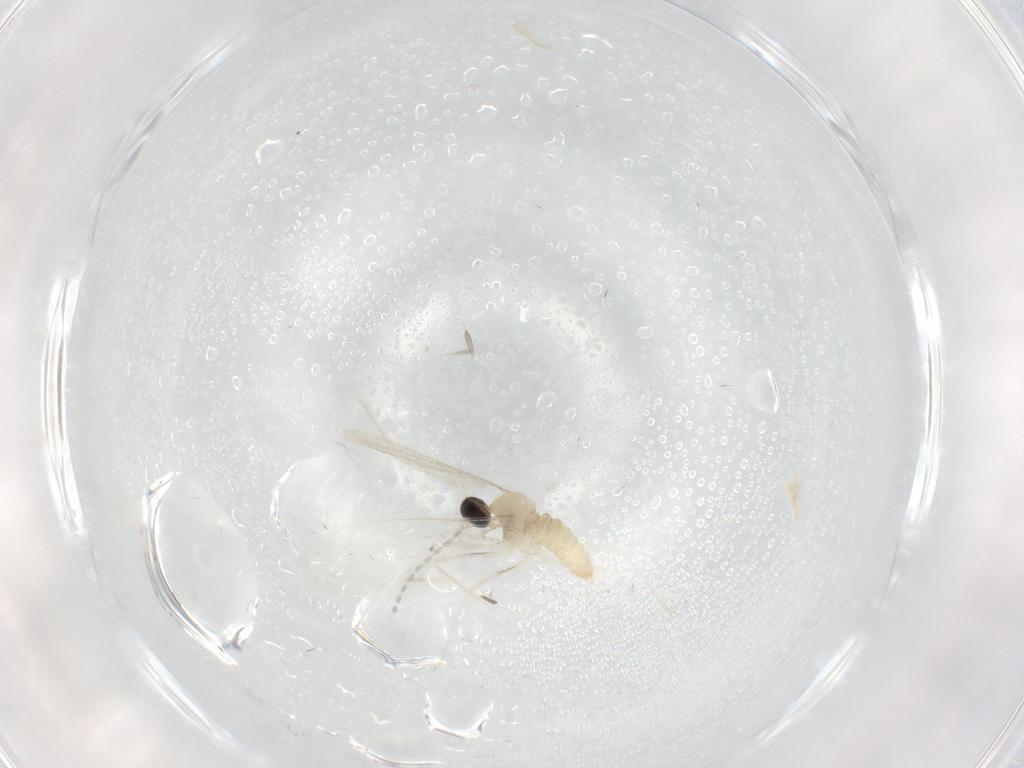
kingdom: Animalia
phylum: Arthropoda
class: Insecta
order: Diptera
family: Cecidomyiidae
